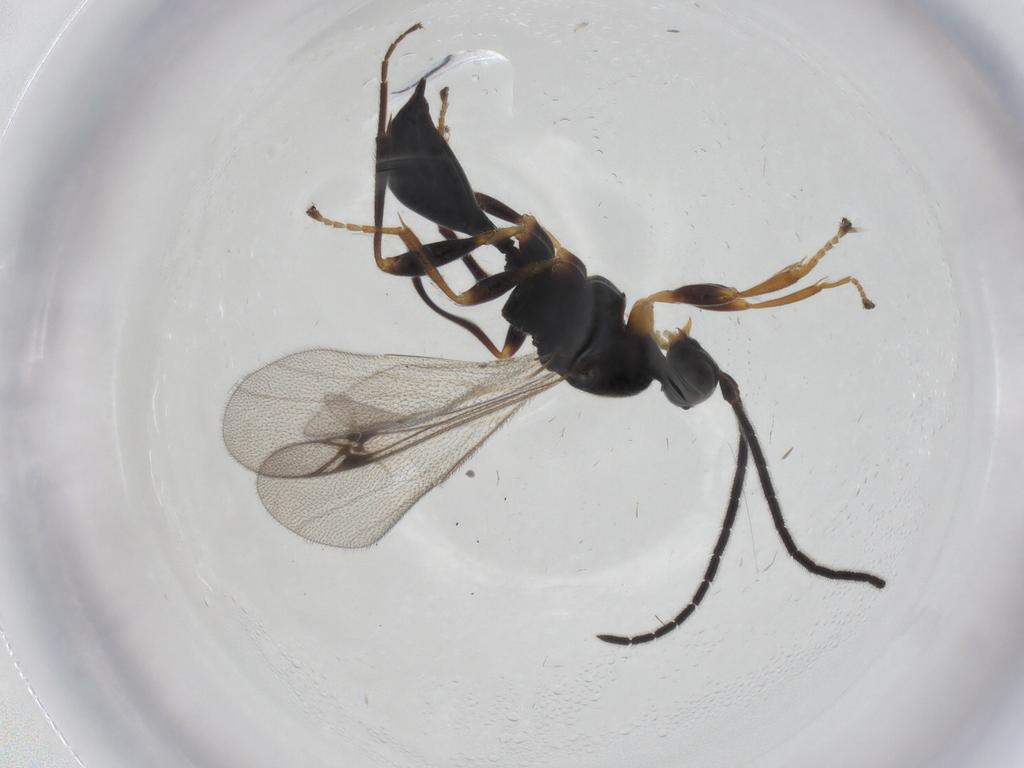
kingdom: Animalia
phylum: Arthropoda
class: Insecta
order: Hymenoptera
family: Proctotrupidae
